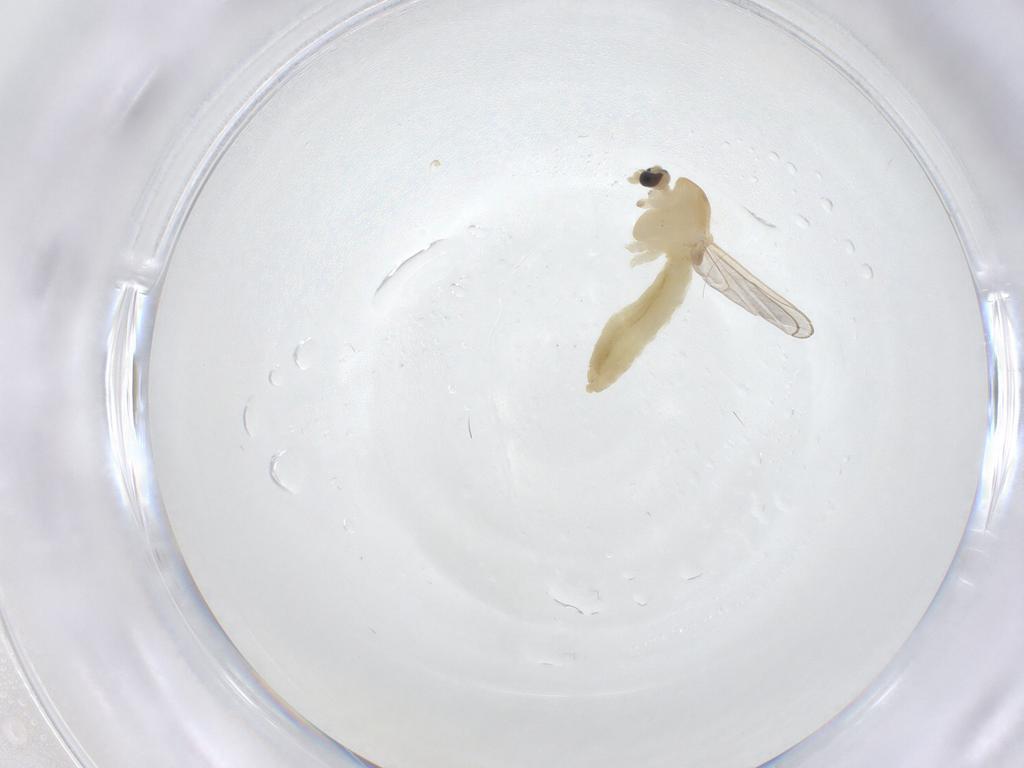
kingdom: Animalia
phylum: Arthropoda
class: Insecta
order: Diptera
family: Chironomidae
